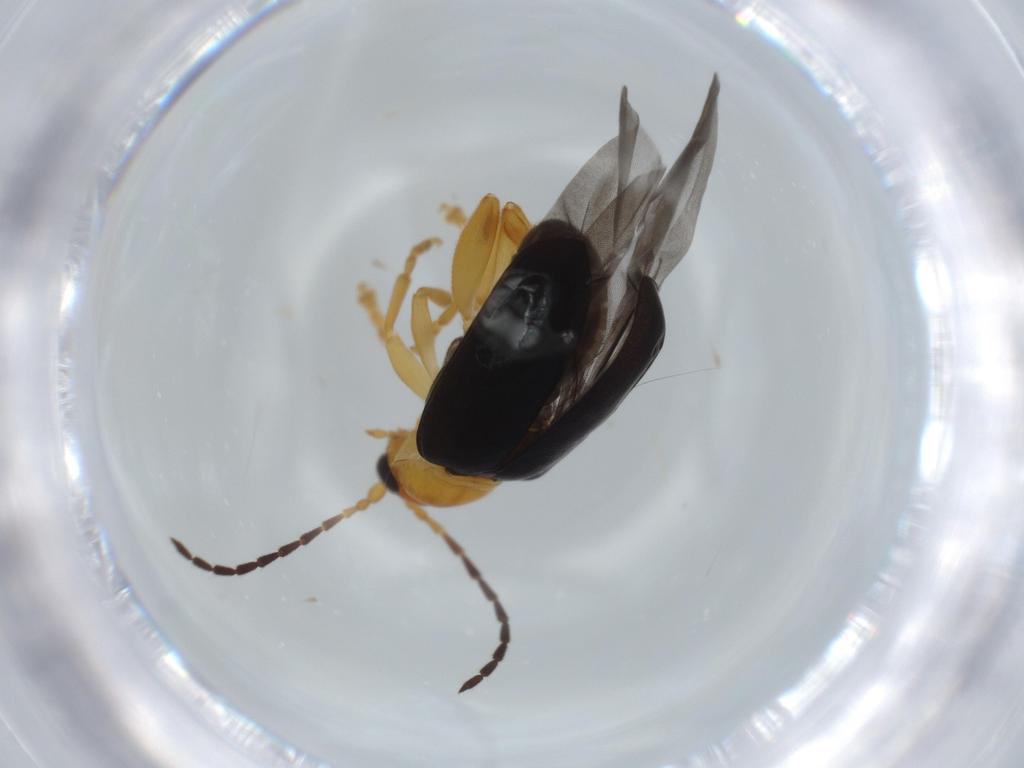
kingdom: Animalia
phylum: Arthropoda
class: Insecta
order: Coleoptera
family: Chrysomelidae
